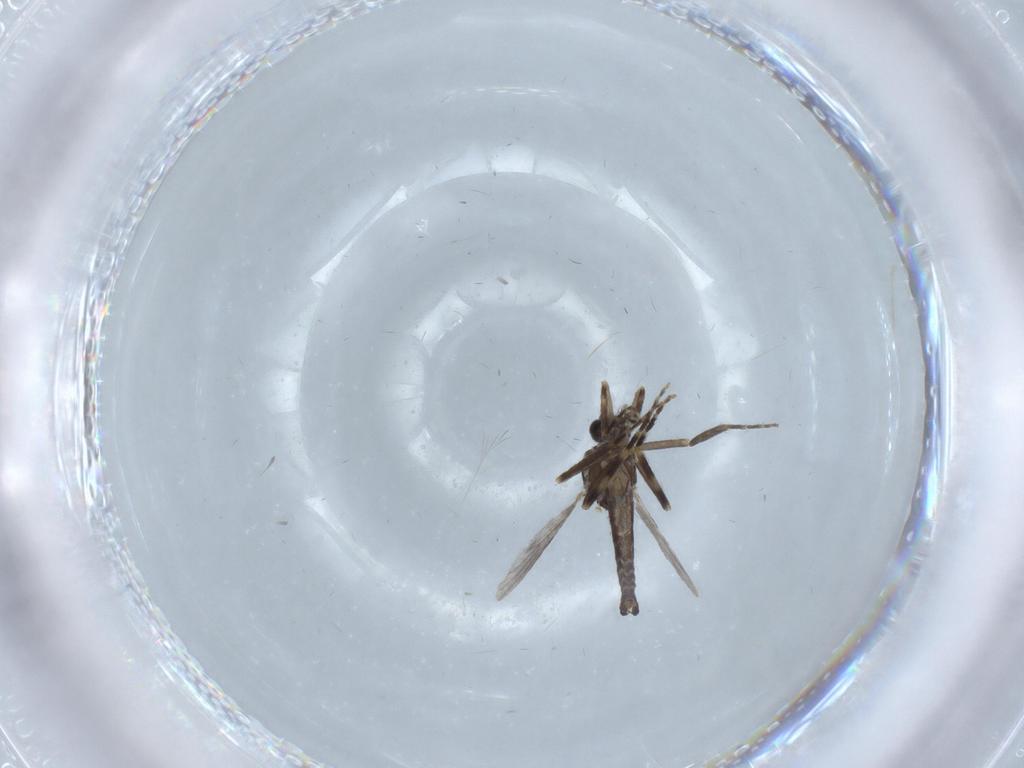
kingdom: Animalia
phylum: Arthropoda
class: Insecta
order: Diptera
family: Ceratopogonidae
